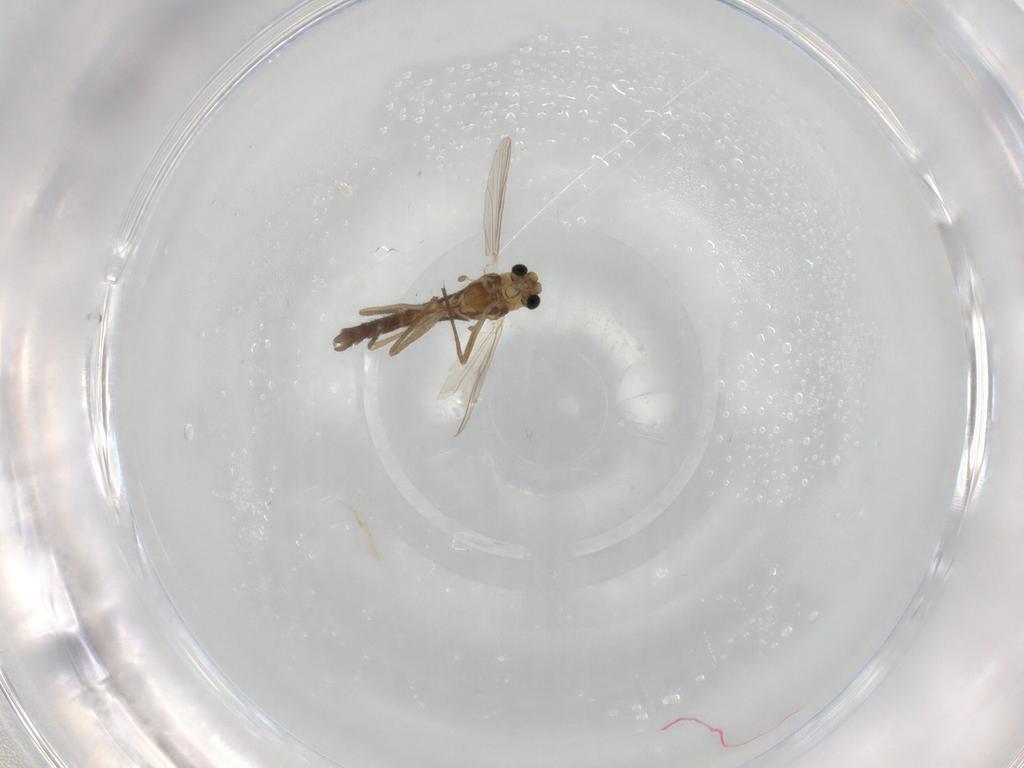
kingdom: Animalia
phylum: Arthropoda
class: Insecta
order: Diptera
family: Chironomidae
